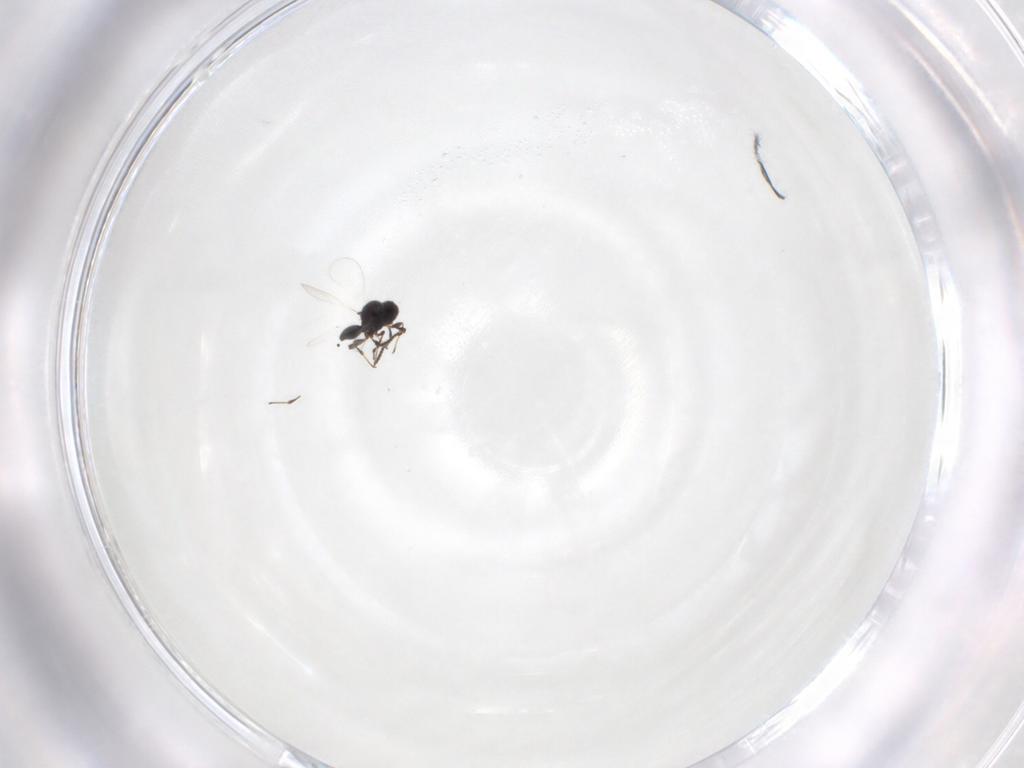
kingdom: Animalia
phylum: Arthropoda
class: Insecta
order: Hymenoptera
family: Platygastridae
